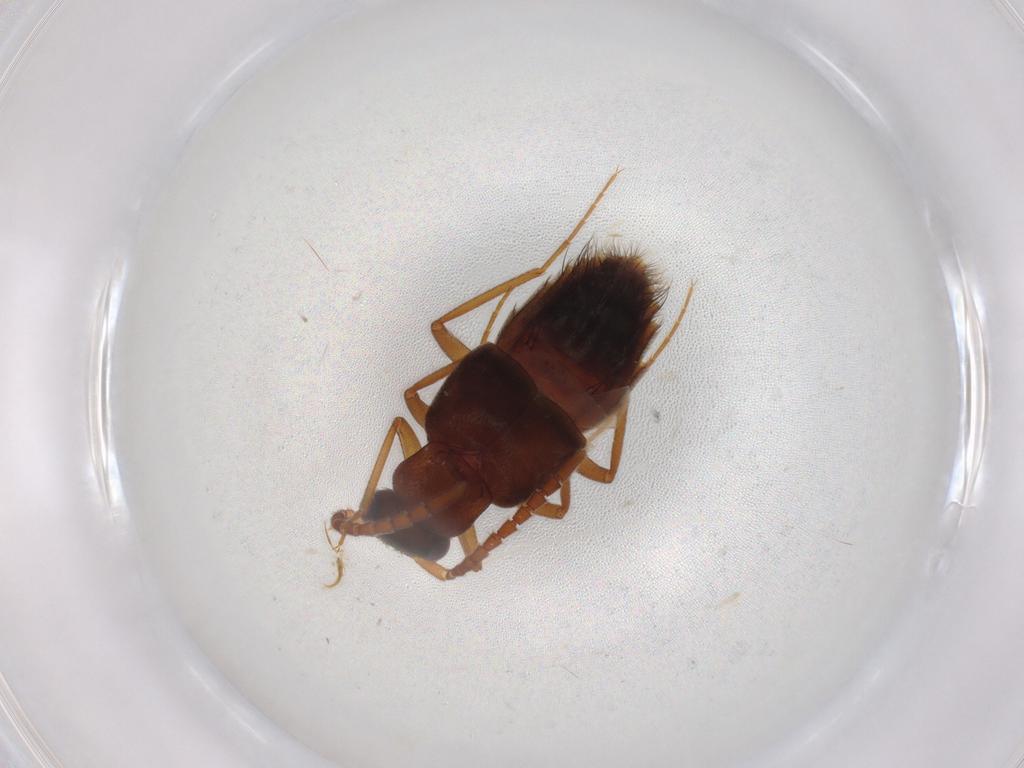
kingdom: Animalia
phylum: Arthropoda
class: Insecta
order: Coleoptera
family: Staphylinidae
